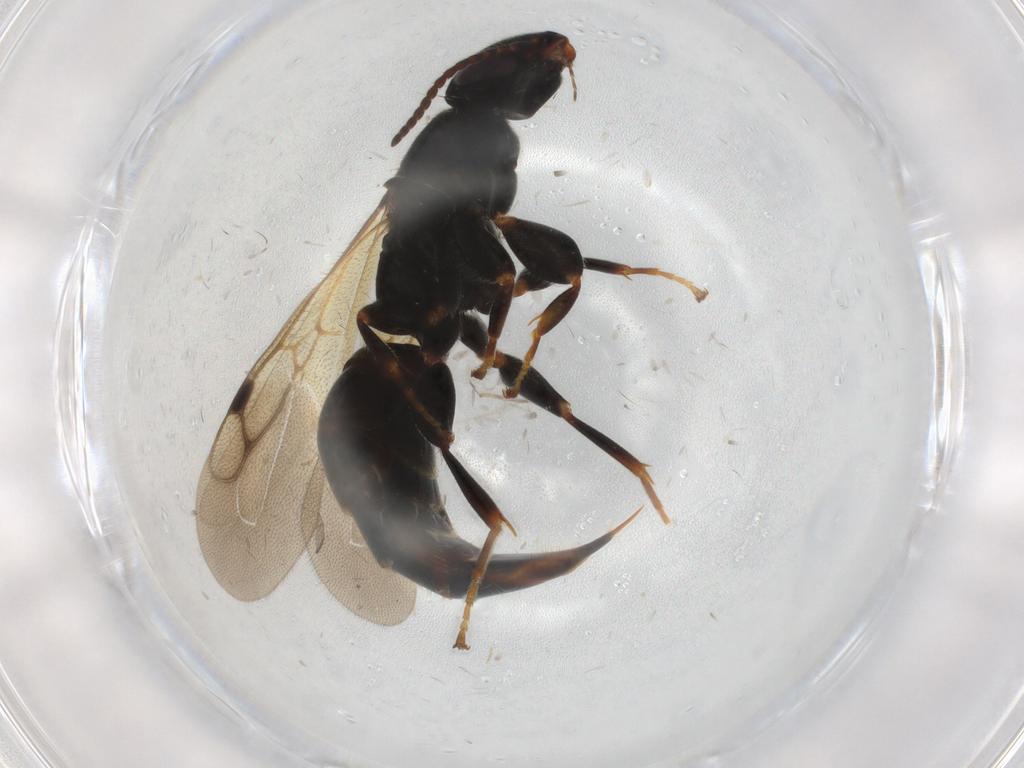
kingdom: Animalia
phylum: Arthropoda
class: Insecta
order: Hymenoptera
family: Bethylidae
